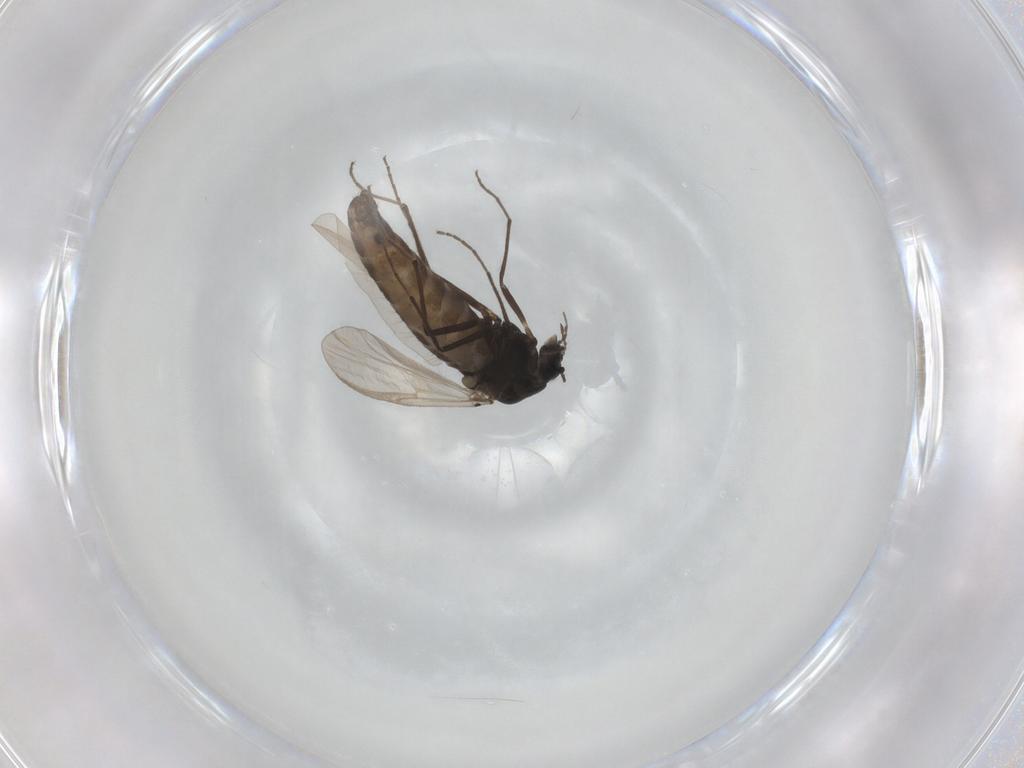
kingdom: Animalia
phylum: Arthropoda
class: Insecta
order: Diptera
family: Chironomidae
